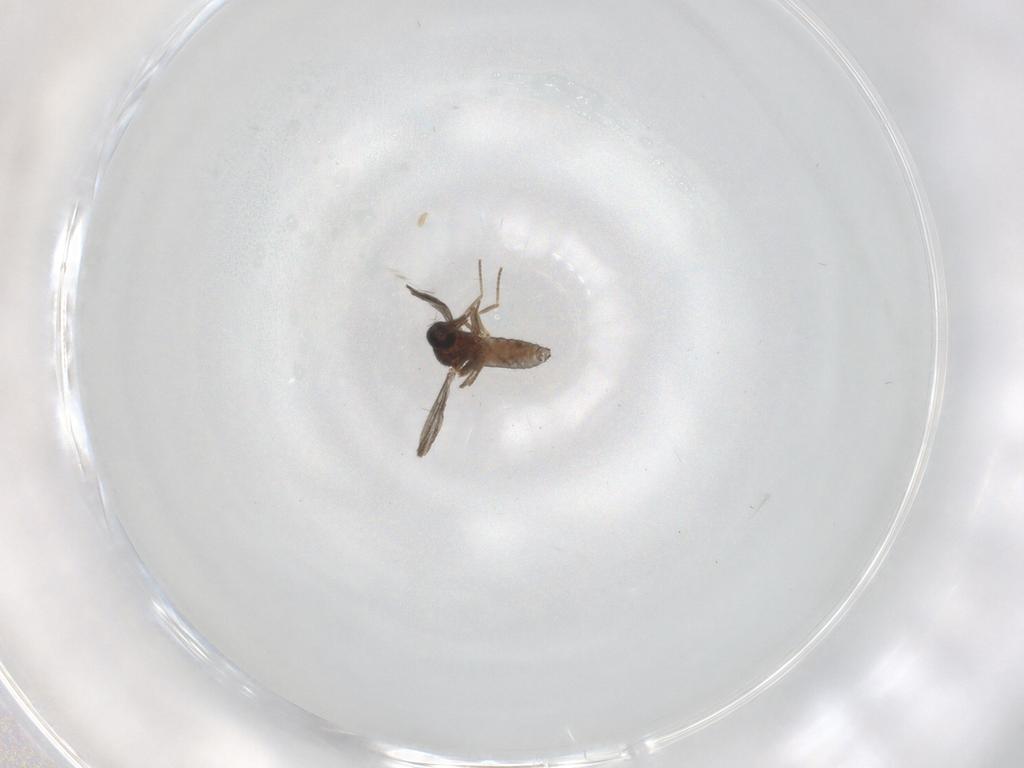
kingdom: Animalia
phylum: Arthropoda
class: Insecta
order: Diptera
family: Ceratopogonidae
